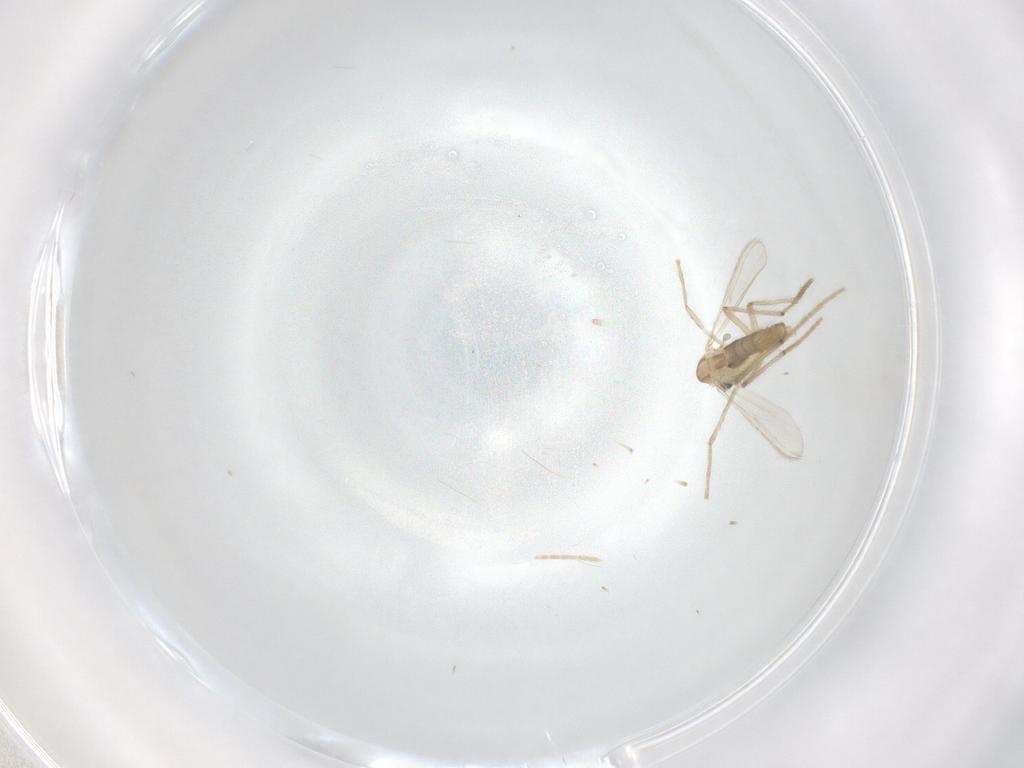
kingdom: Animalia
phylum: Arthropoda
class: Insecta
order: Diptera
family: Chironomidae
